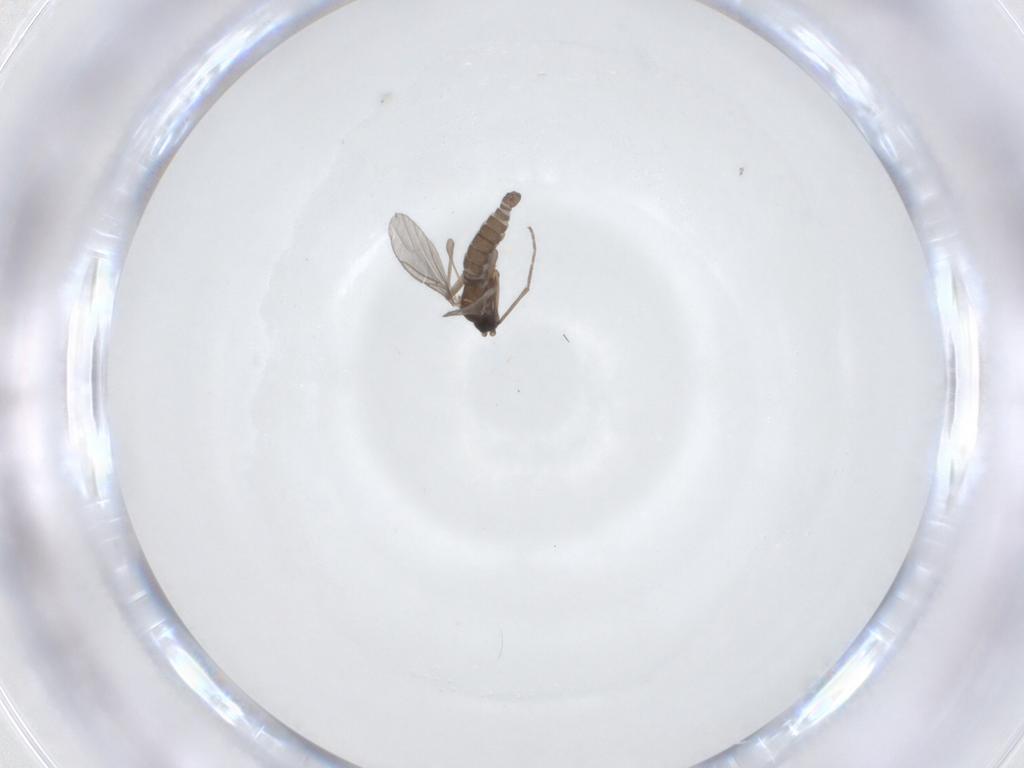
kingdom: Animalia
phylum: Arthropoda
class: Insecta
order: Diptera
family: Sciaridae
